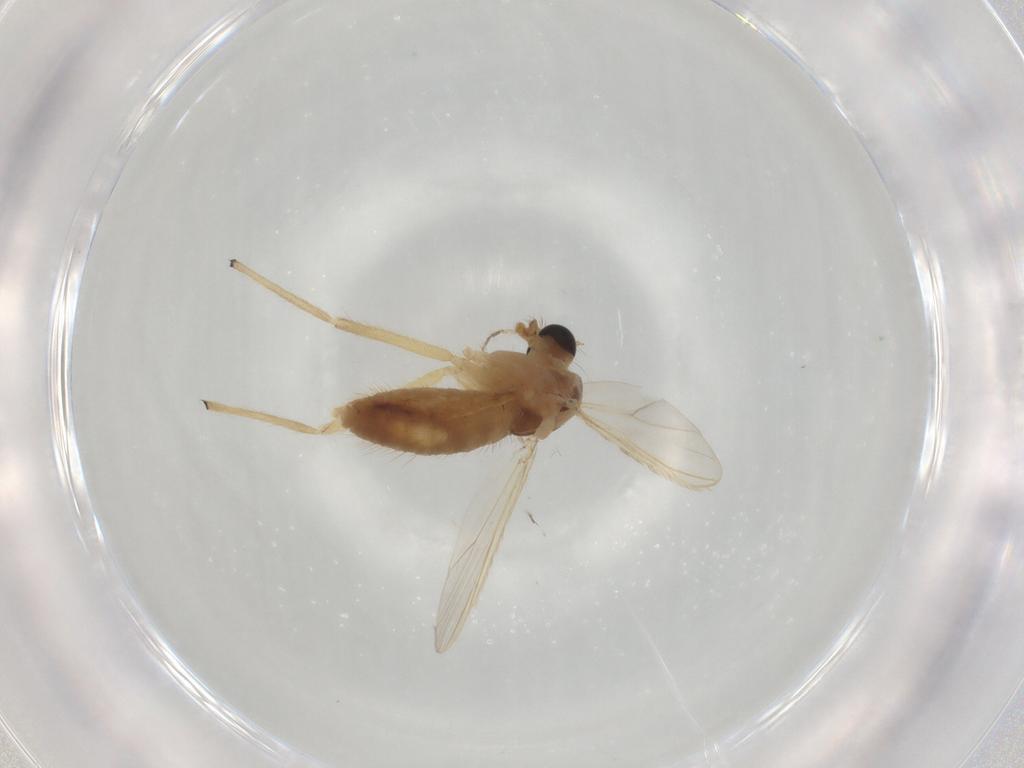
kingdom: Animalia
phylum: Arthropoda
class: Insecta
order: Diptera
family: Chironomidae
